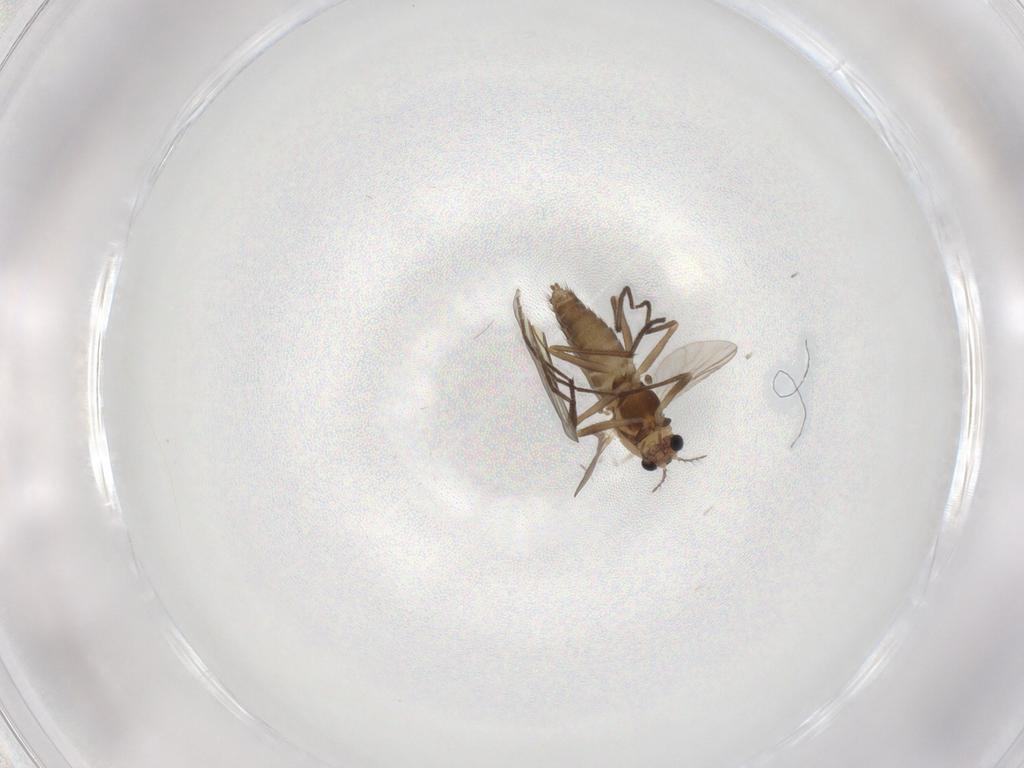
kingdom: Animalia
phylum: Arthropoda
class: Insecta
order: Diptera
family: Chironomidae
